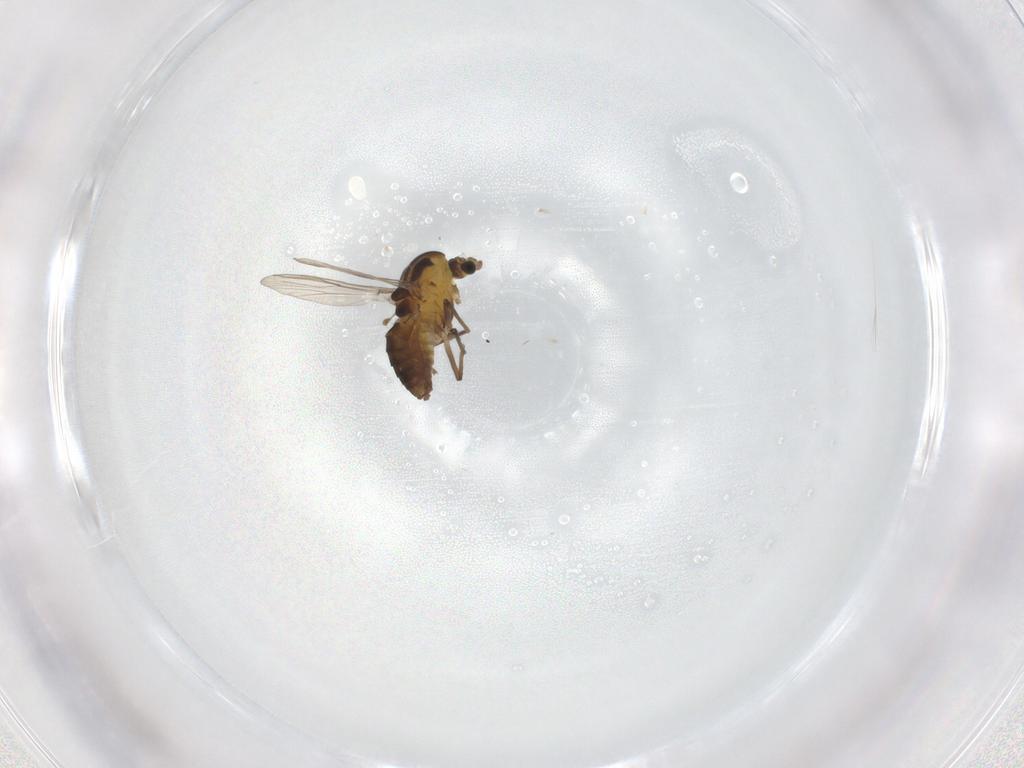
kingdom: Animalia
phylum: Arthropoda
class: Insecta
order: Diptera
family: Chironomidae
